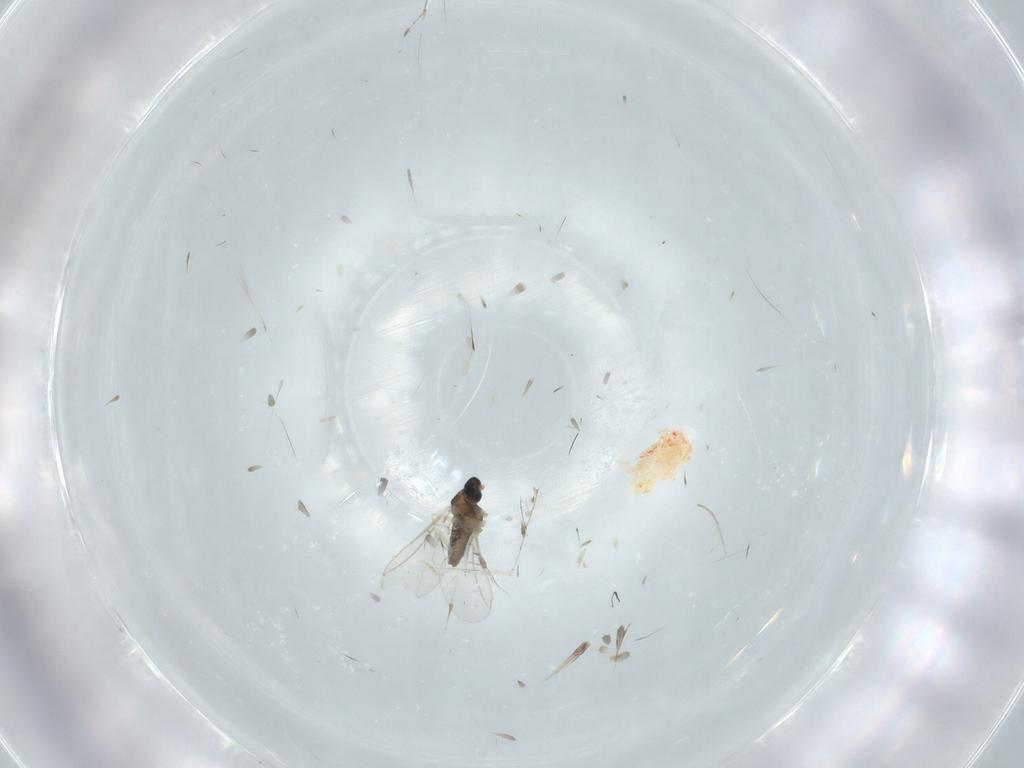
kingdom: Animalia
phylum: Arthropoda
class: Insecta
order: Diptera
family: Cecidomyiidae
